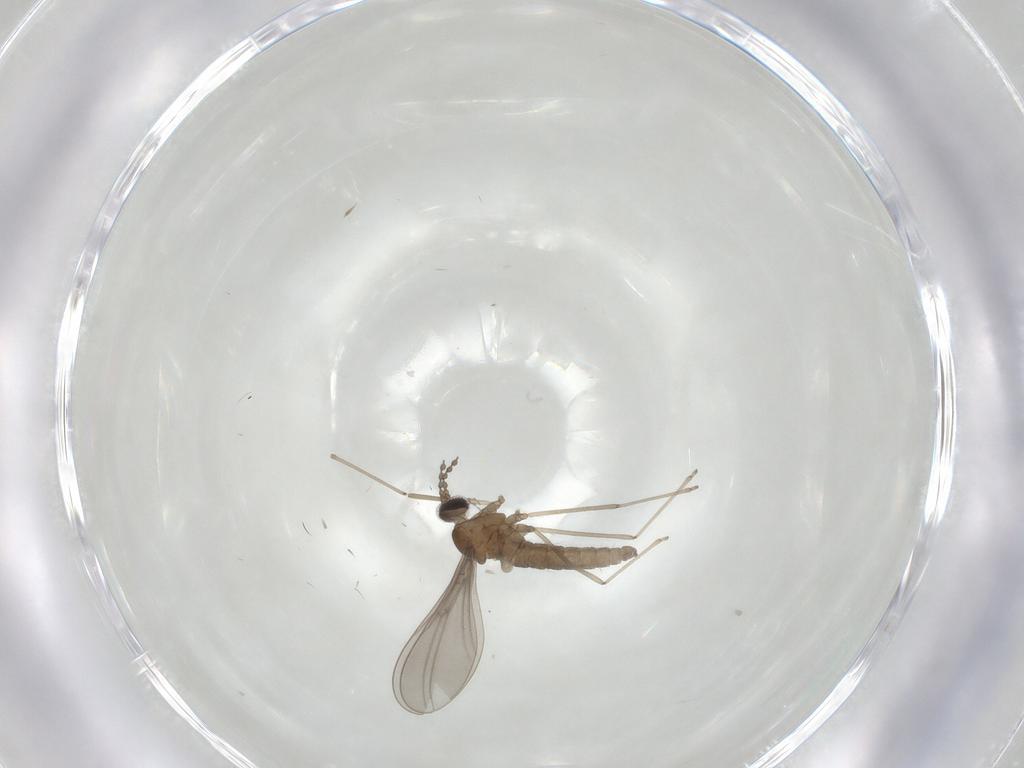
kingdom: Animalia
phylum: Arthropoda
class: Insecta
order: Diptera
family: Cecidomyiidae
